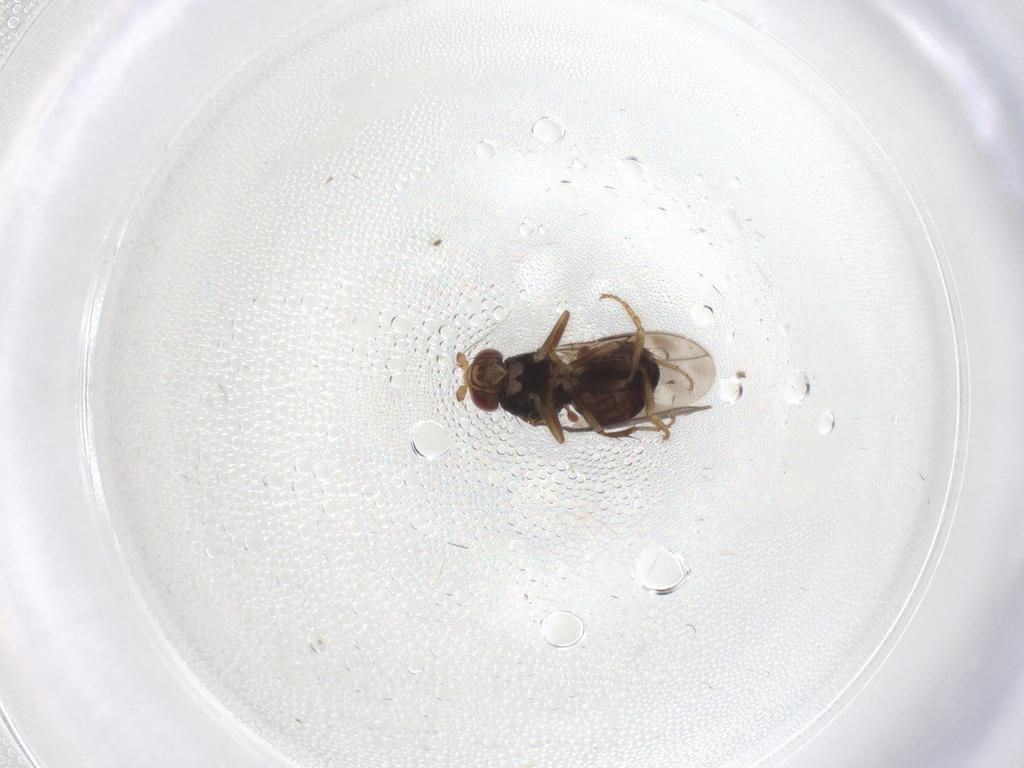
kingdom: Animalia
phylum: Arthropoda
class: Insecta
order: Diptera
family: Sphaeroceridae
